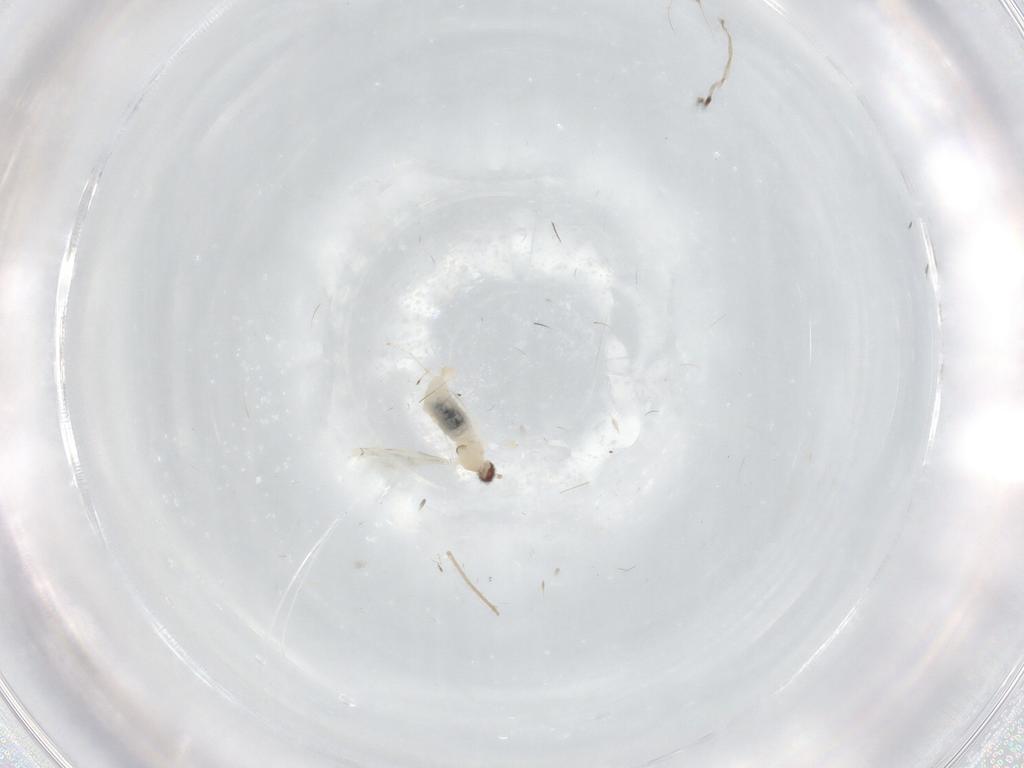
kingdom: Animalia
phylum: Arthropoda
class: Insecta
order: Diptera
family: Cecidomyiidae
